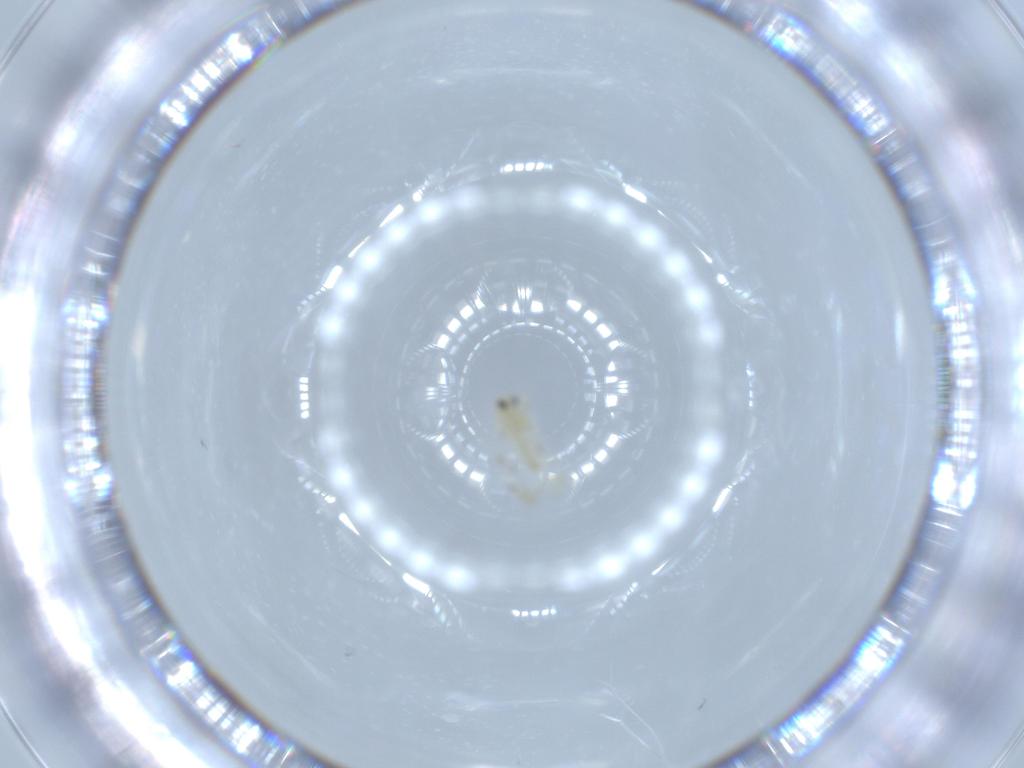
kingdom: Animalia
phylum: Arthropoda
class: Insecta
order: Hemiptera
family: Aleyrodidae
